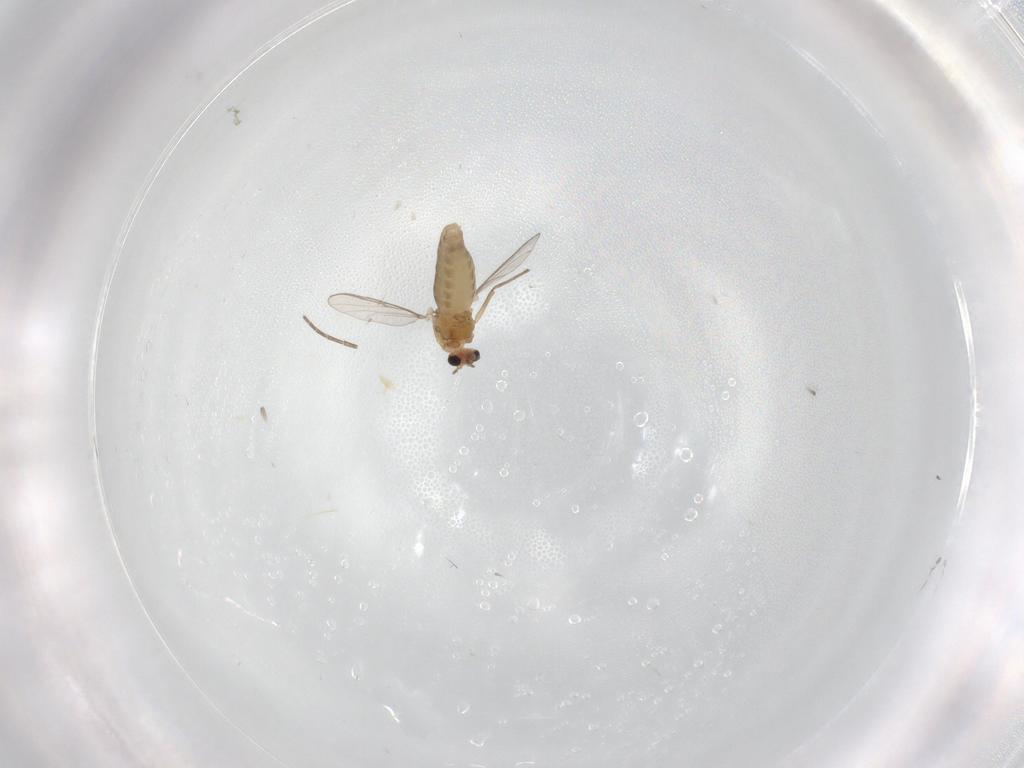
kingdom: Animalia
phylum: Arthropoda
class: Insecta
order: Diptera
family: Chironomidae
